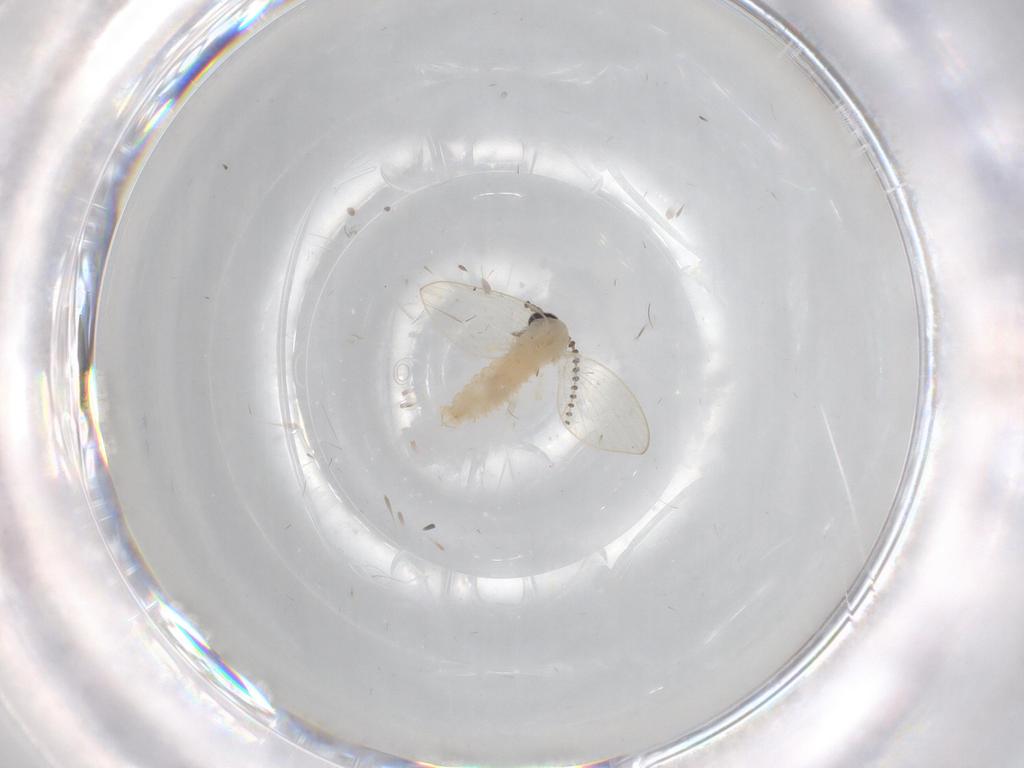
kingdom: Animalia
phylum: Arthropoda
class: Insecta
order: Diptera
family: Psychodidae
